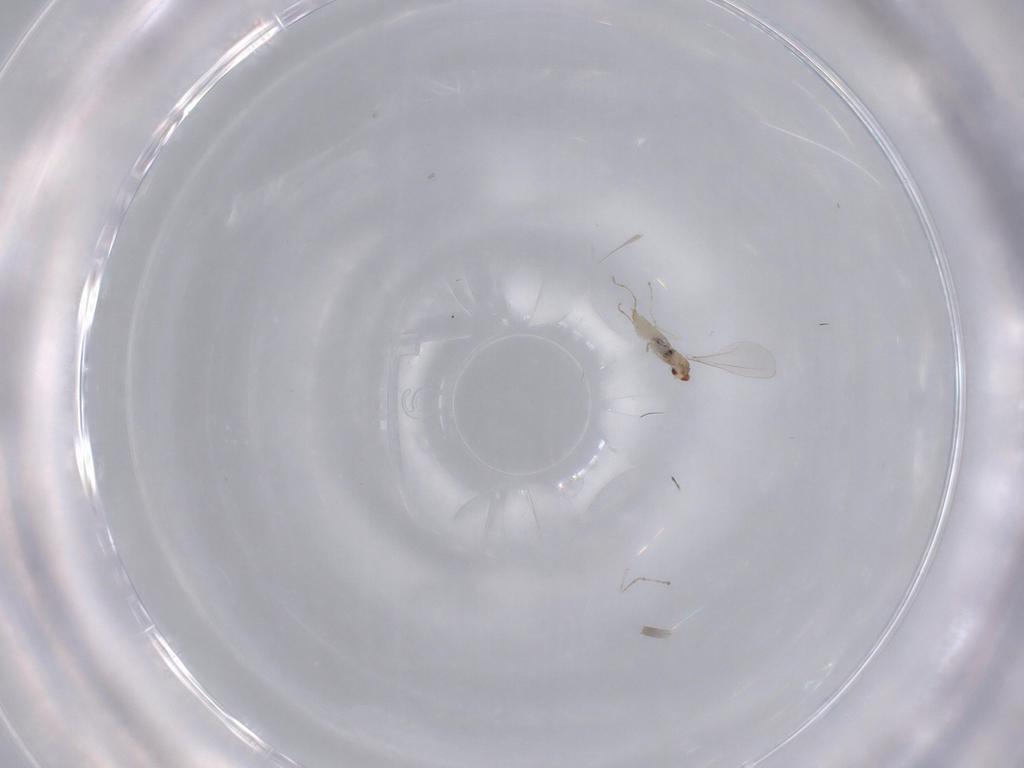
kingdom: Animalia
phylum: Arthropoda
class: Insecta
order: Diptera
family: Cecidomyiidae
